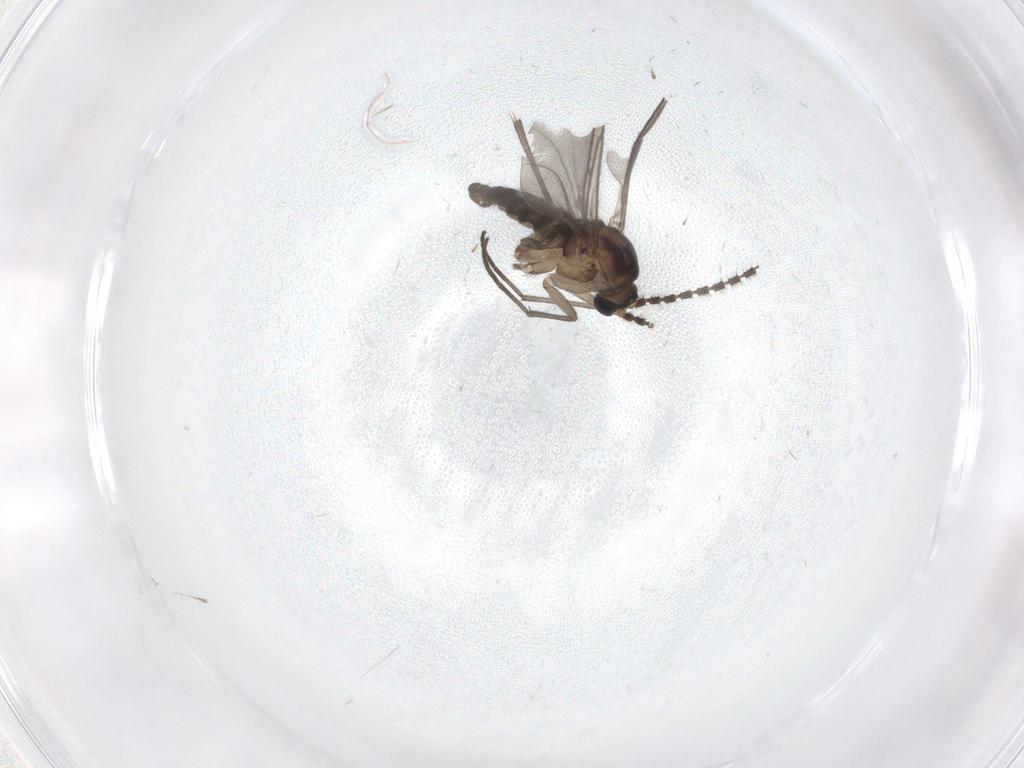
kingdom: Animalia
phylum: Arthropoda
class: Insecta
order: Diptera
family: Sciaridae
